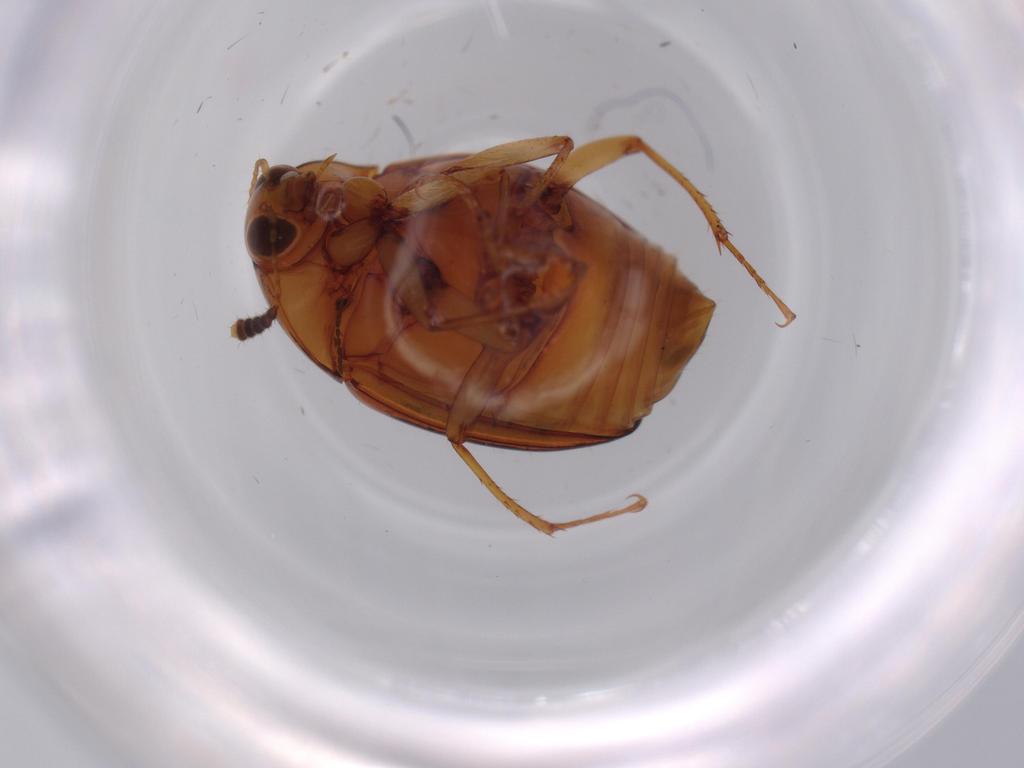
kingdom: Animalia
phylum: Arthropoda
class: Insecta
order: Coleoptera
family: Staphylinidae
